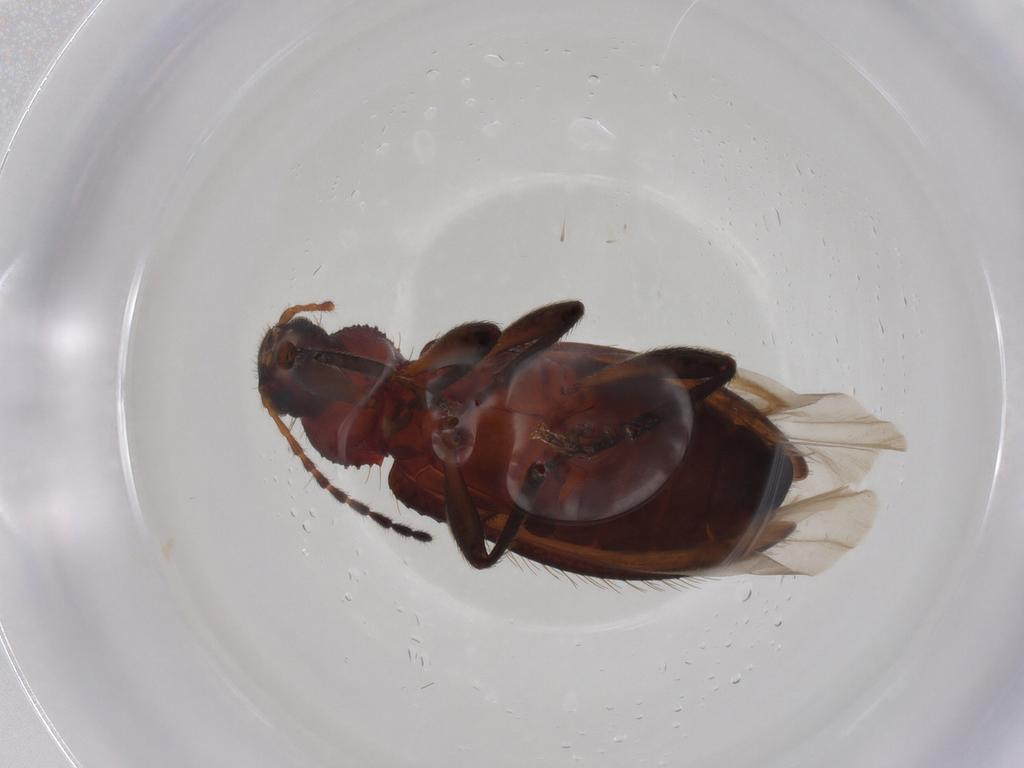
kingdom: Animalia
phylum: Arthropoda
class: Insecta
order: Coleoptera
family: Tenebrionidae
